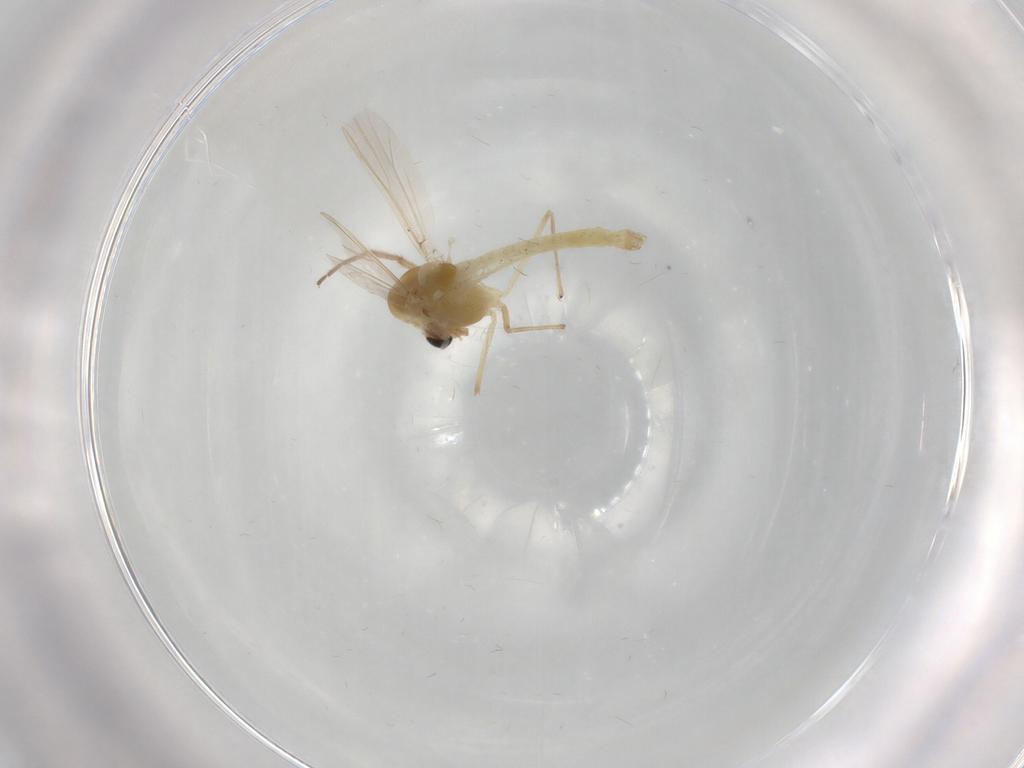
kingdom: Animalia
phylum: Arthropoda
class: Insecta
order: Diptera
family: Chironomidae
